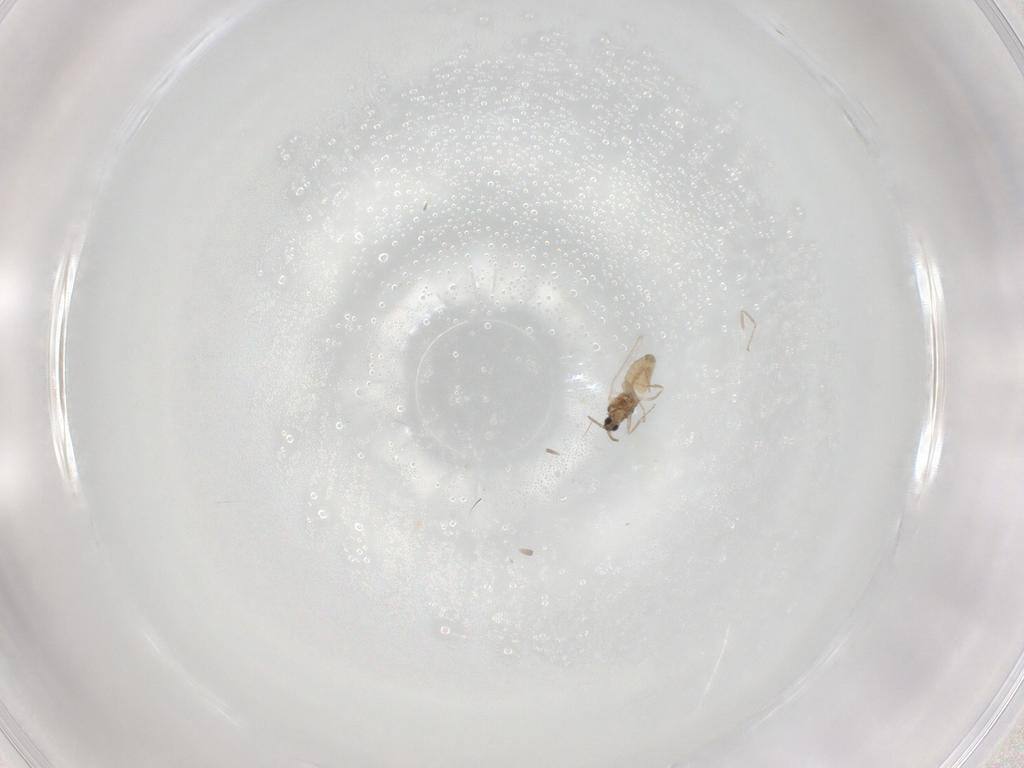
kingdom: Animalia
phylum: Arthropoda
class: Insecta
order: Diptera
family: Cecidomyiidae
